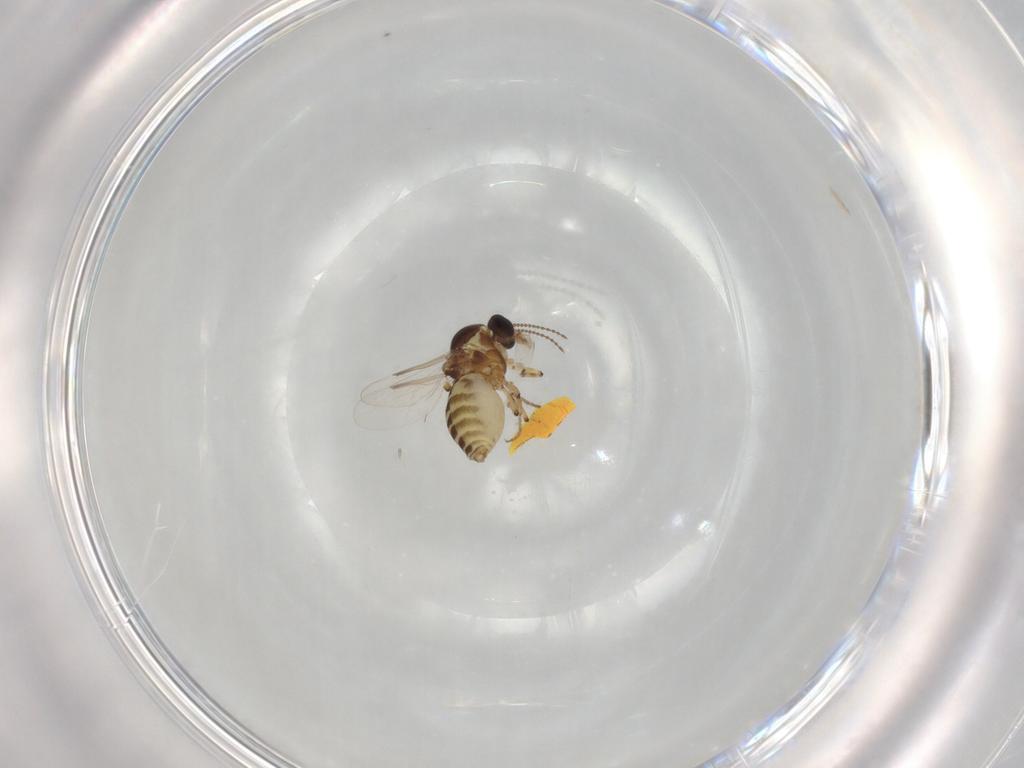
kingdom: Animalia
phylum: Arthropoda
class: Insecta
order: Diptera
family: Ceratopogonidae
